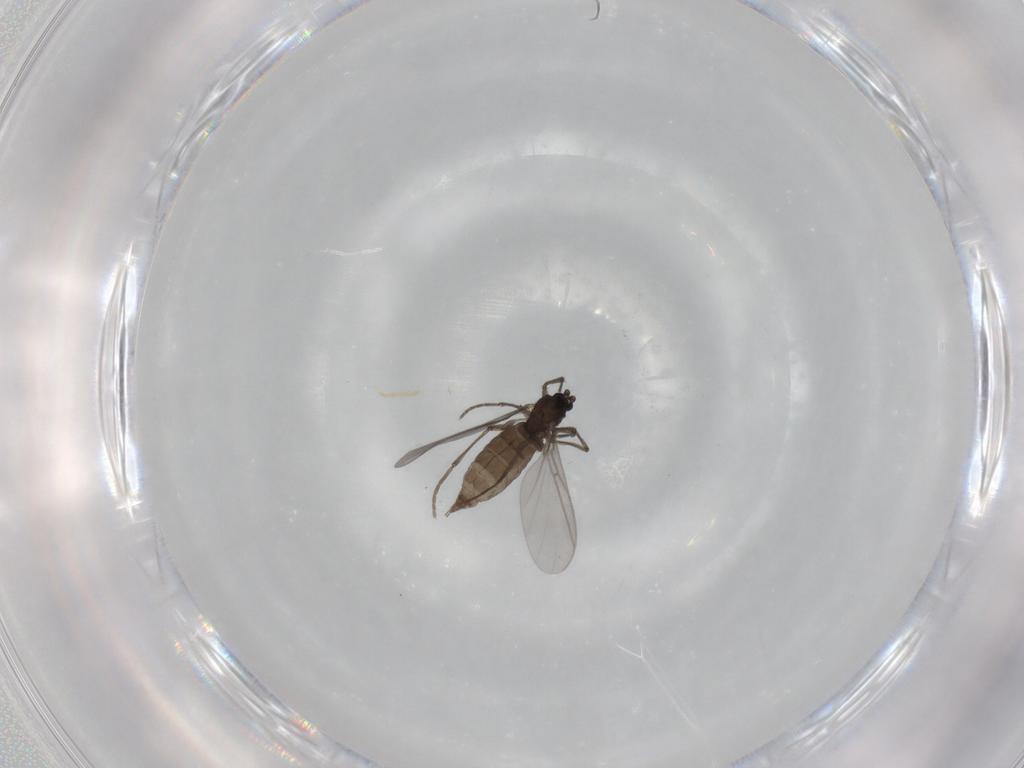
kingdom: Animalia
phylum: Arthropoda
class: Insecta
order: Diptera
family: Sciaridae
